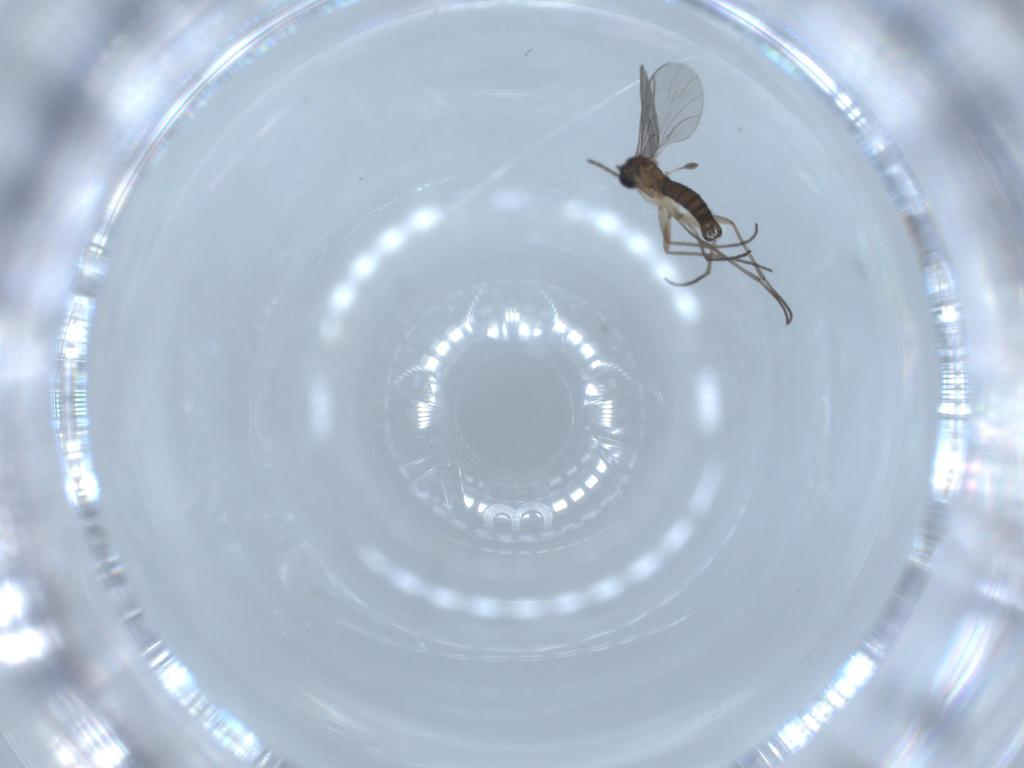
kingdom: Animalia
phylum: Arthropoda
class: Insecta
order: Diptera
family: Sciaridae
